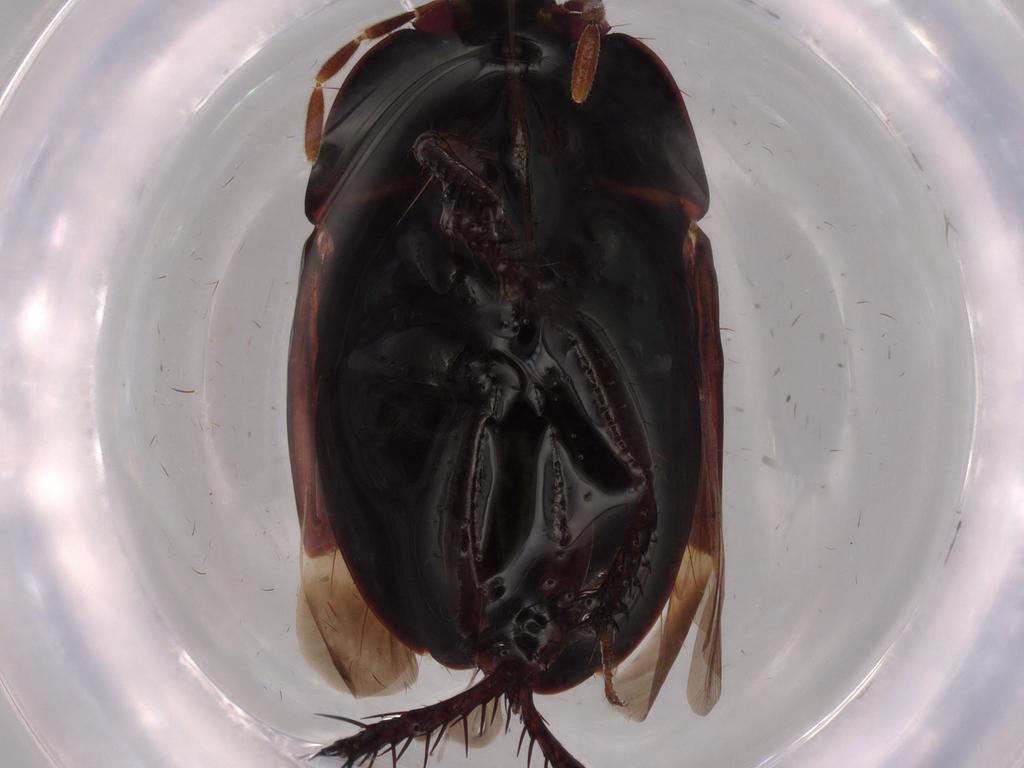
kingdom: Animalia
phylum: Arthropoda
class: Insecta
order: Hemiptera
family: Cydnidae
